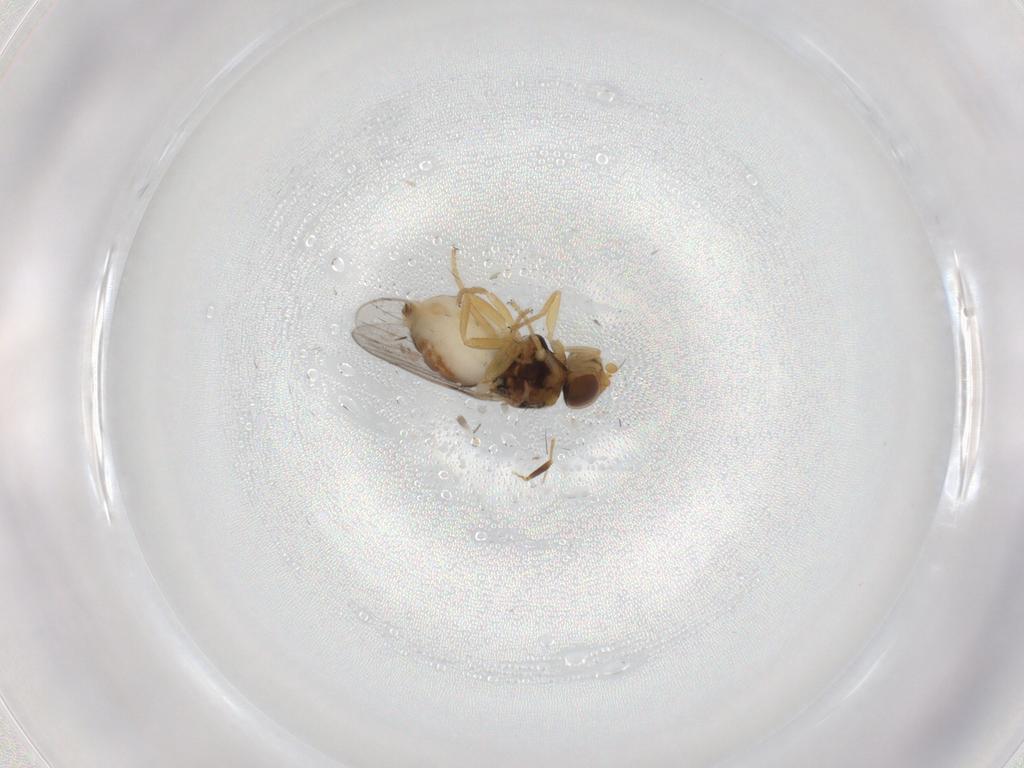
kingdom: Animalia
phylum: Arthropoda
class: Insecta
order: Diptera
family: Chloropidae
